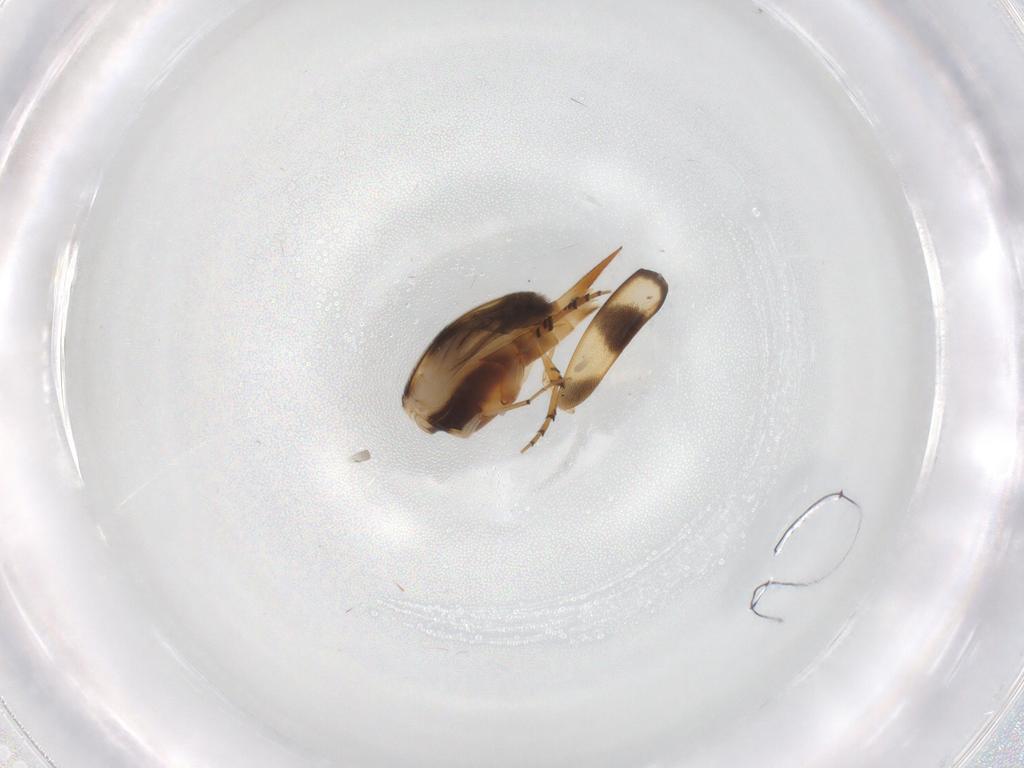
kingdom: Animalia
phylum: Arthropoda
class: Insecta
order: Coleoptera
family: Mordellidae
